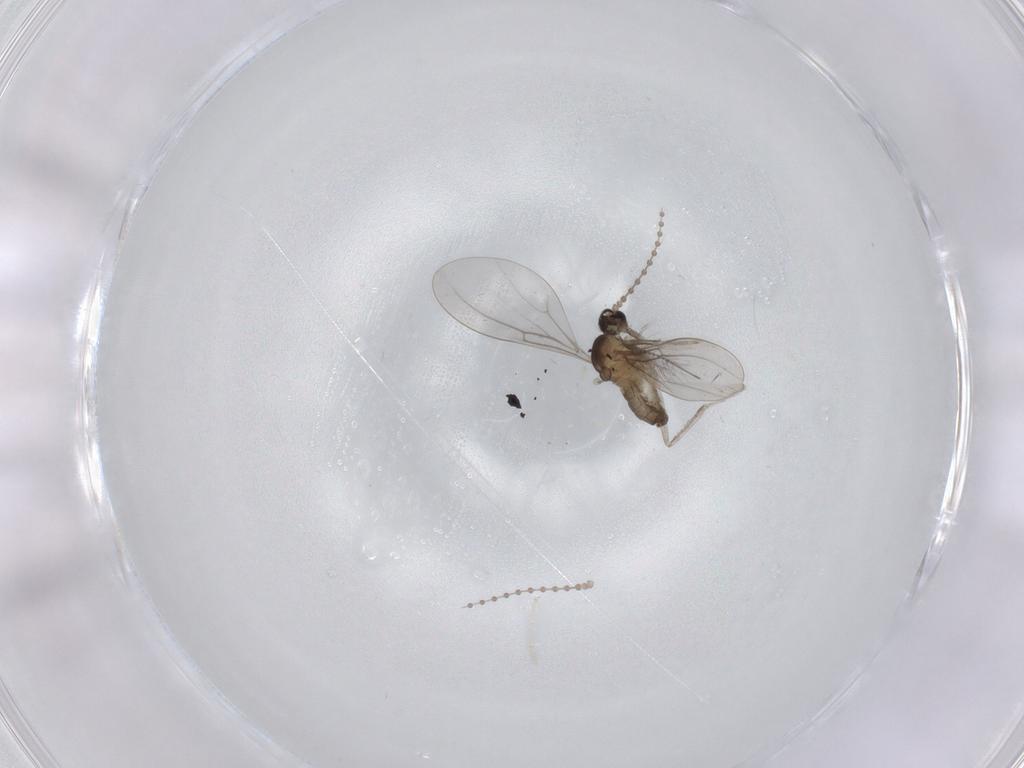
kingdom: Animalia
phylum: Arthropoda
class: Insecta
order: Diptera
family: Cecidomyiidae
